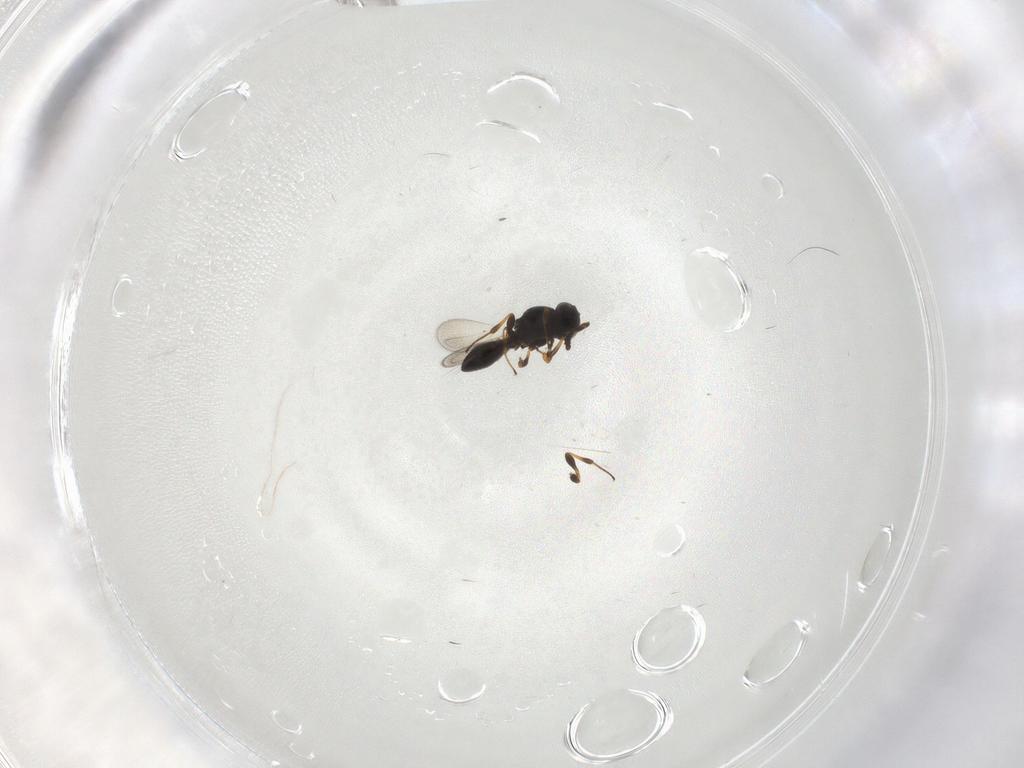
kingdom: Animalia
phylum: Arthropoda
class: Insecta
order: Hymenoptera
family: Platygastridae
